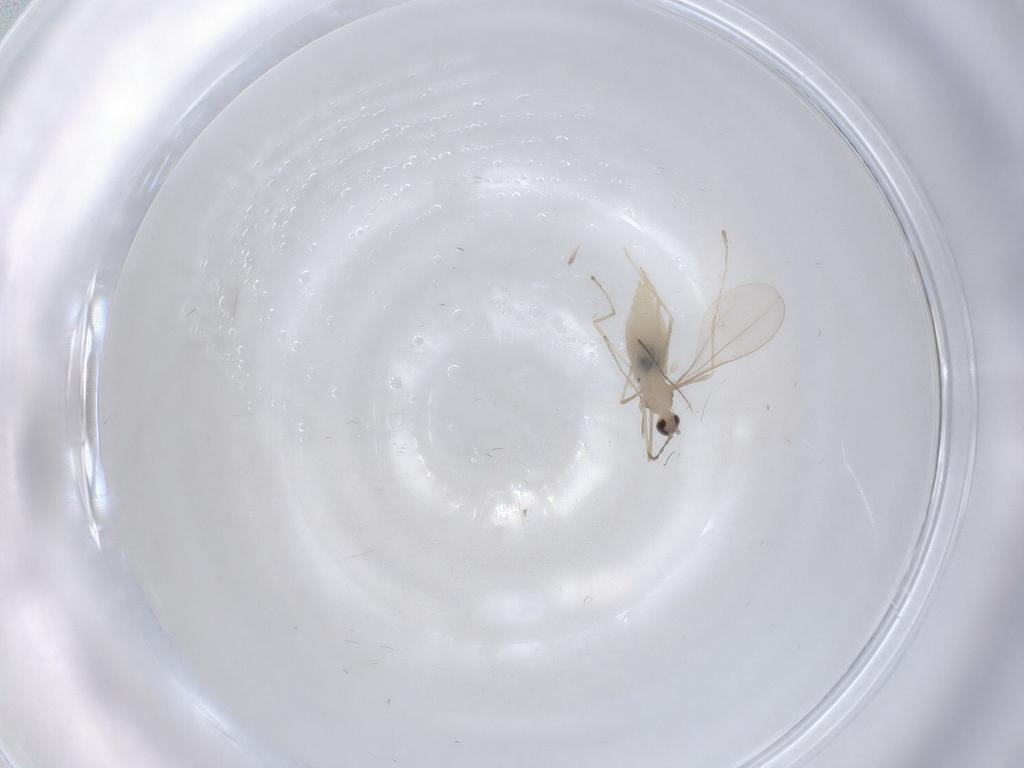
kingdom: Animalia
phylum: Arthropoda
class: Insecta
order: Diptera
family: Cecidomyiidae
